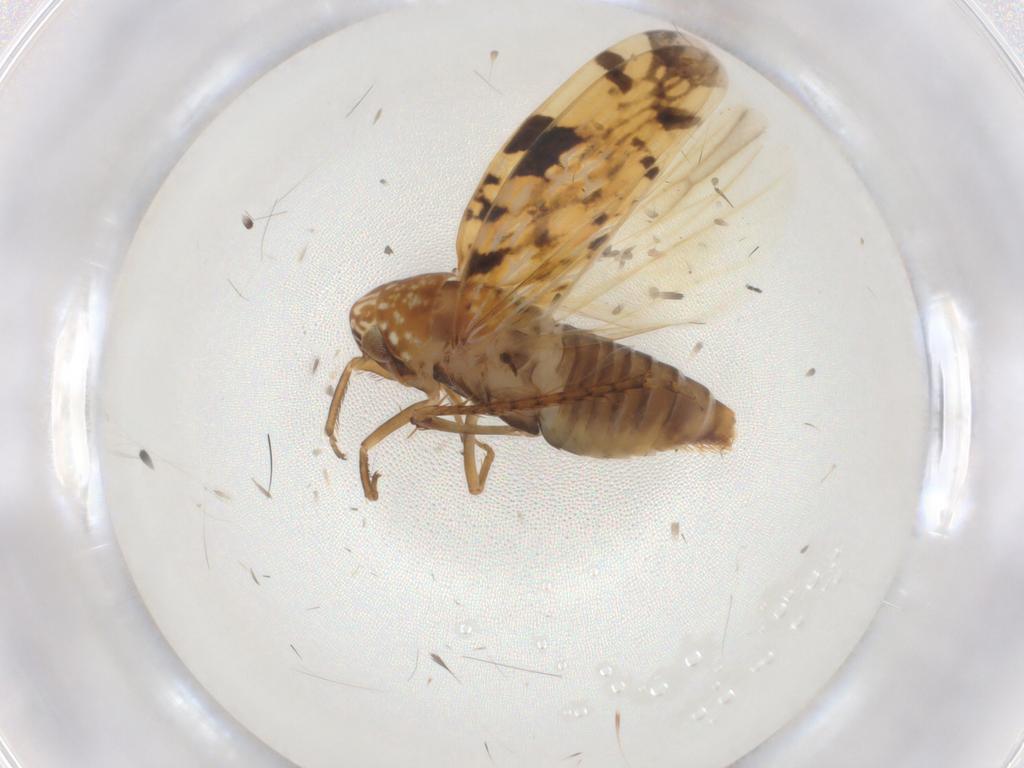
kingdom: Animalia
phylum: Arthropoda
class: Insecta
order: Hemiptera
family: Cicadellidae
